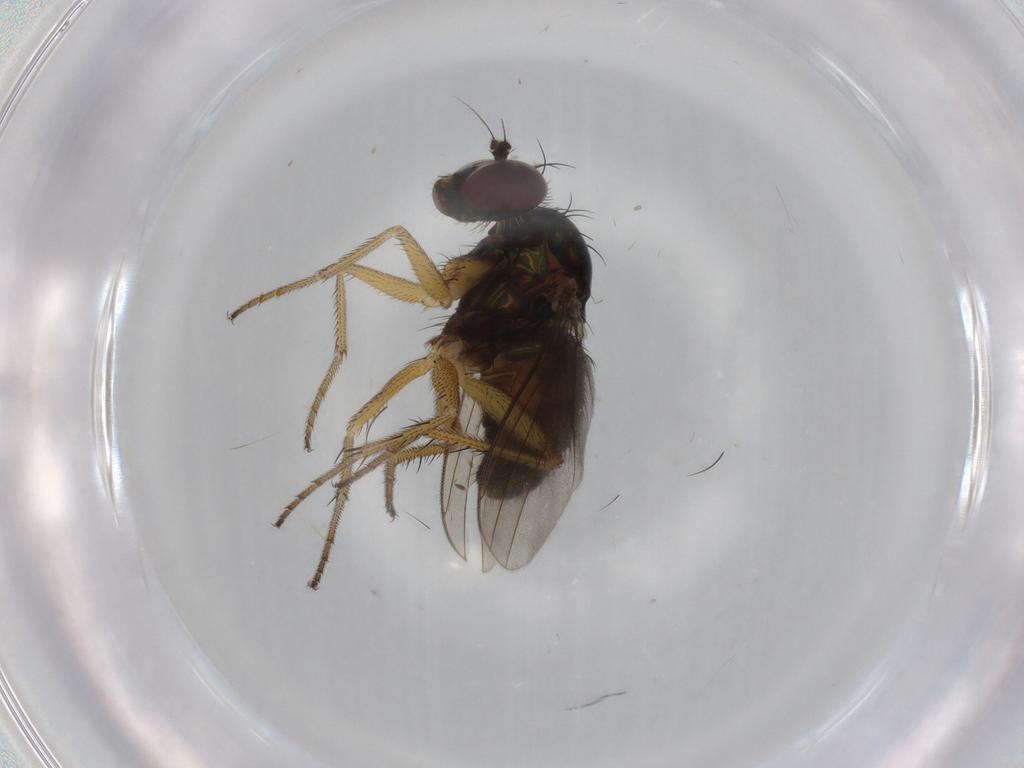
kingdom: Animalia
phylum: Arthropoda
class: Insecta
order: Diptera
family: Dolichopodidae
